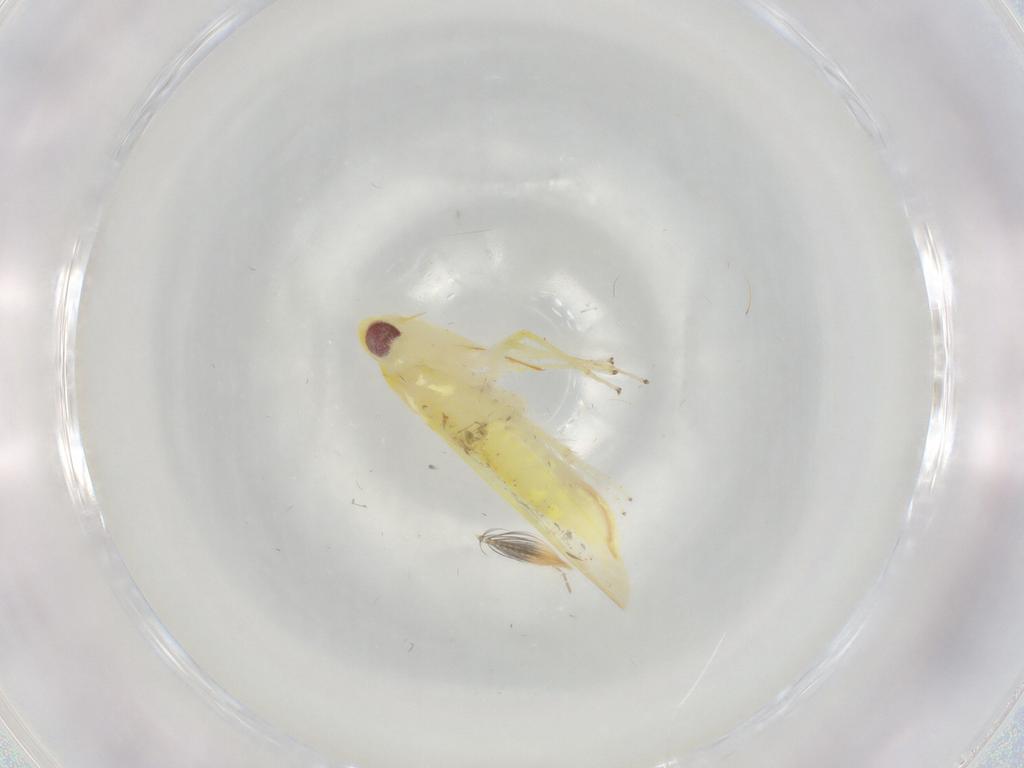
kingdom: Animalia
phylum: Arthropoda
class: Insecta
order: Hemiptera
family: Cicadellidae
